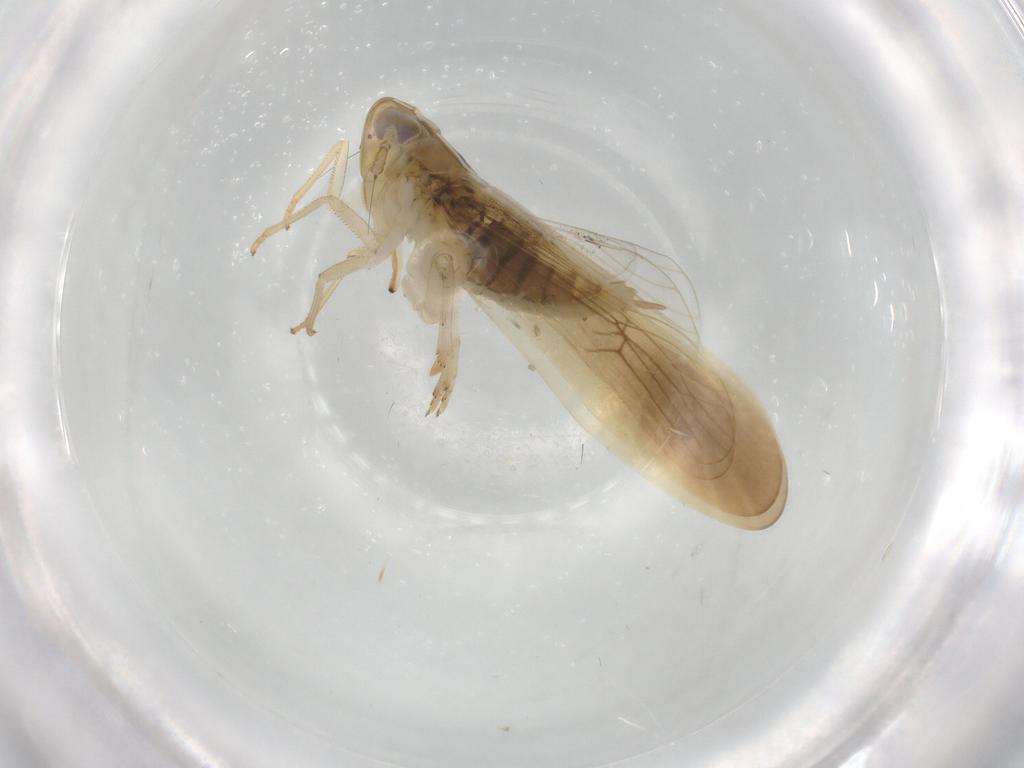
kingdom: Animalia
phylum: Arthropoda
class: Insecta
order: Hemiptera
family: Delphacidae
